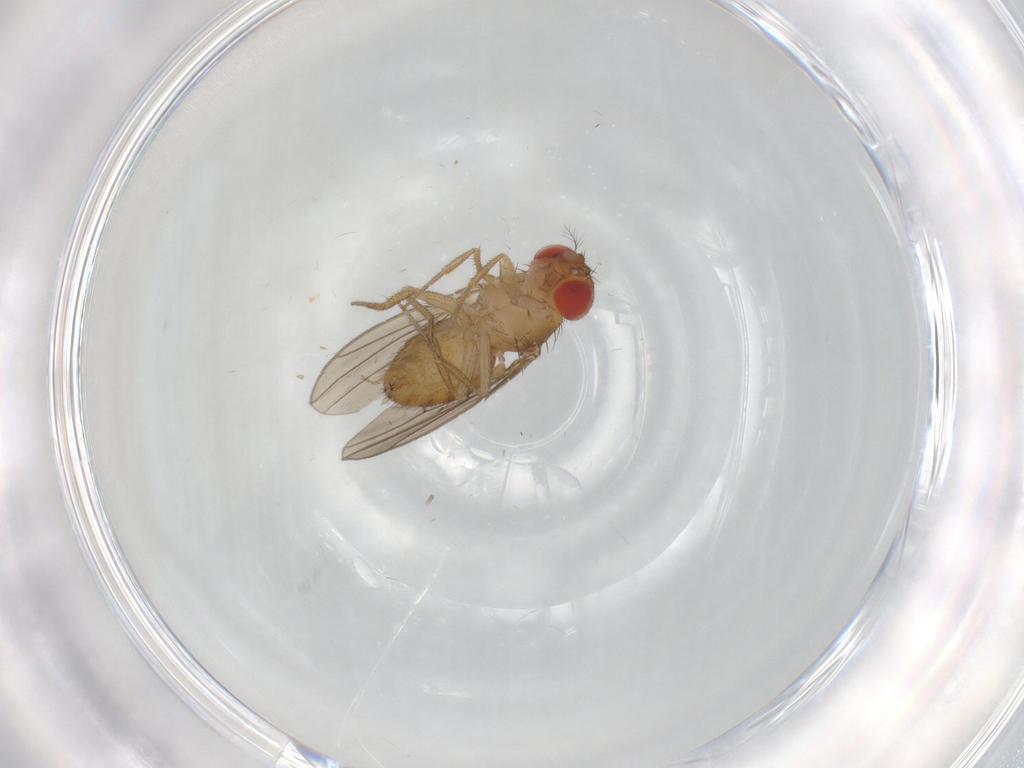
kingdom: Animalia
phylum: Arthropoda
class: Insecta
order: Diptera
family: Drosophilidae
